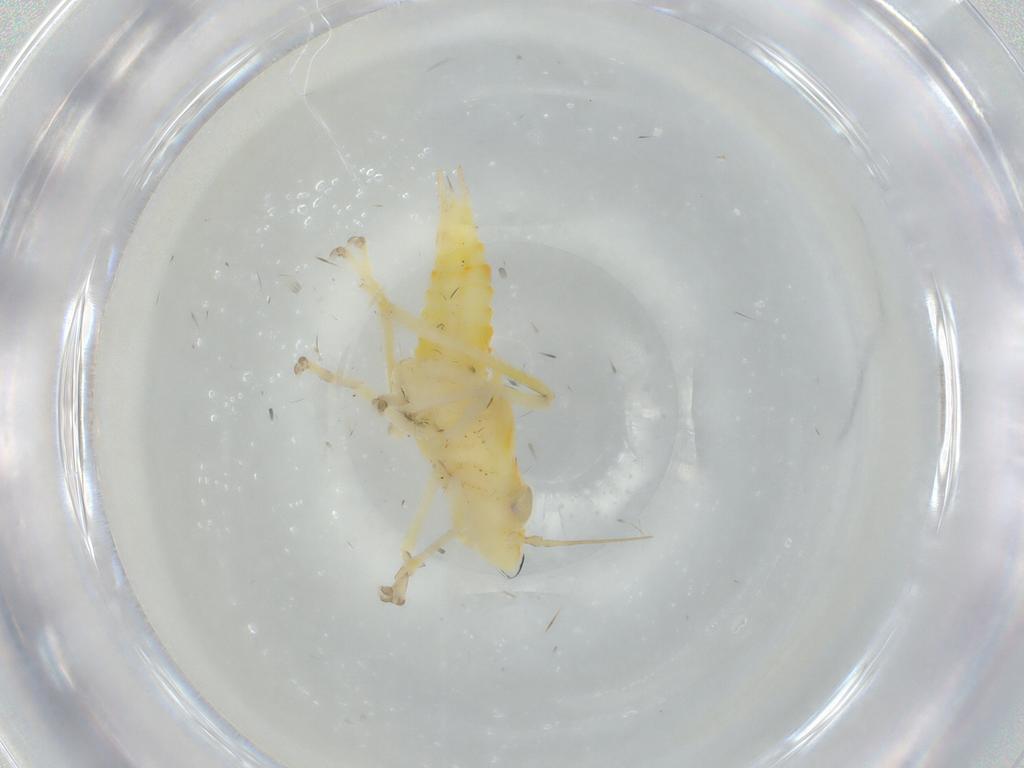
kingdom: Animalia
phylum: Arthropoda
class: Insecta
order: Hemiptera
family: Cicadellidae
